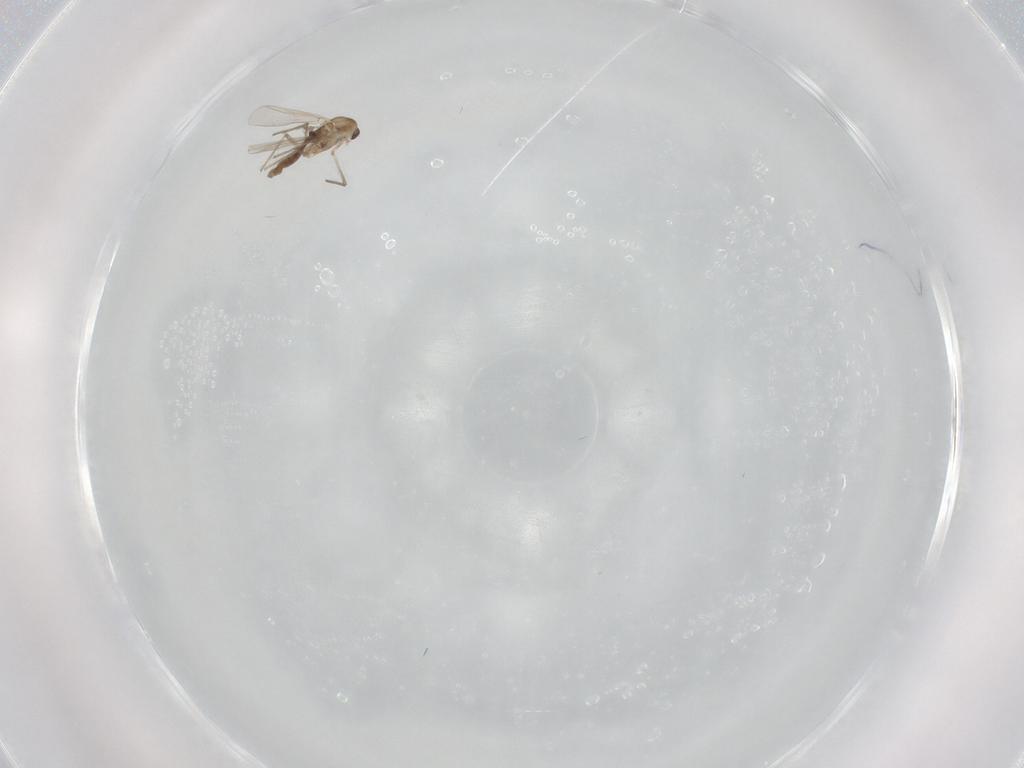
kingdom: Animalia
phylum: Arthropoda
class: Insecta
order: Diptera
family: Chironomidae
